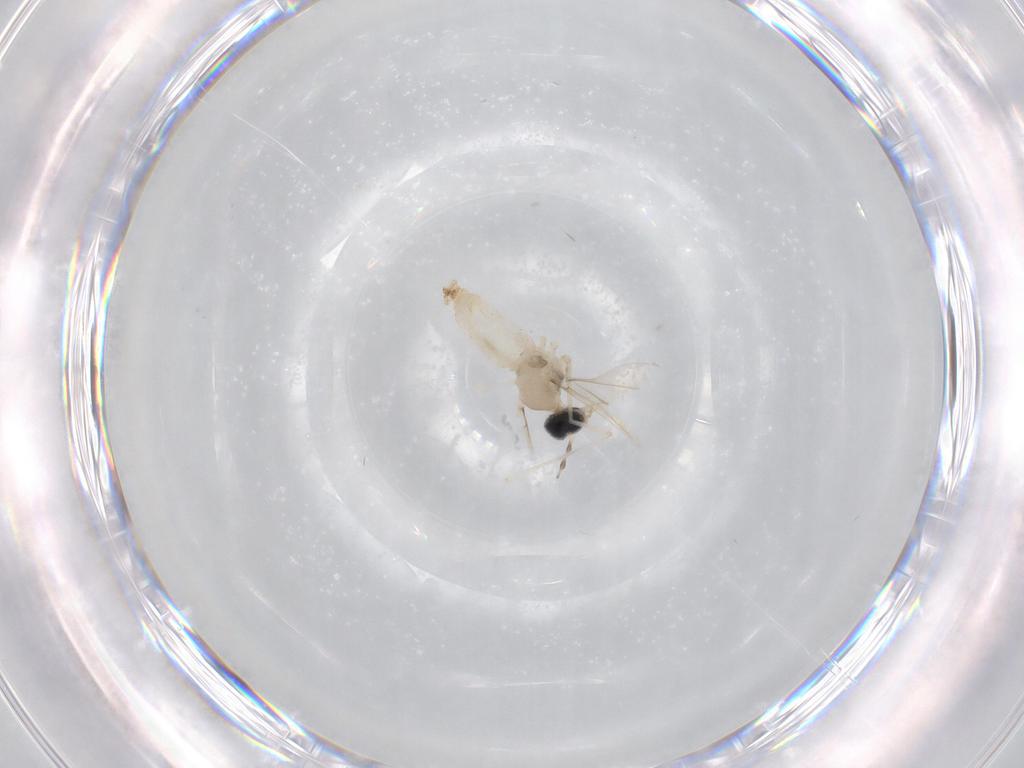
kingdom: Animalia
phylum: Arthropoda
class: Insecta
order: Diptera
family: Cecidomyiidae
